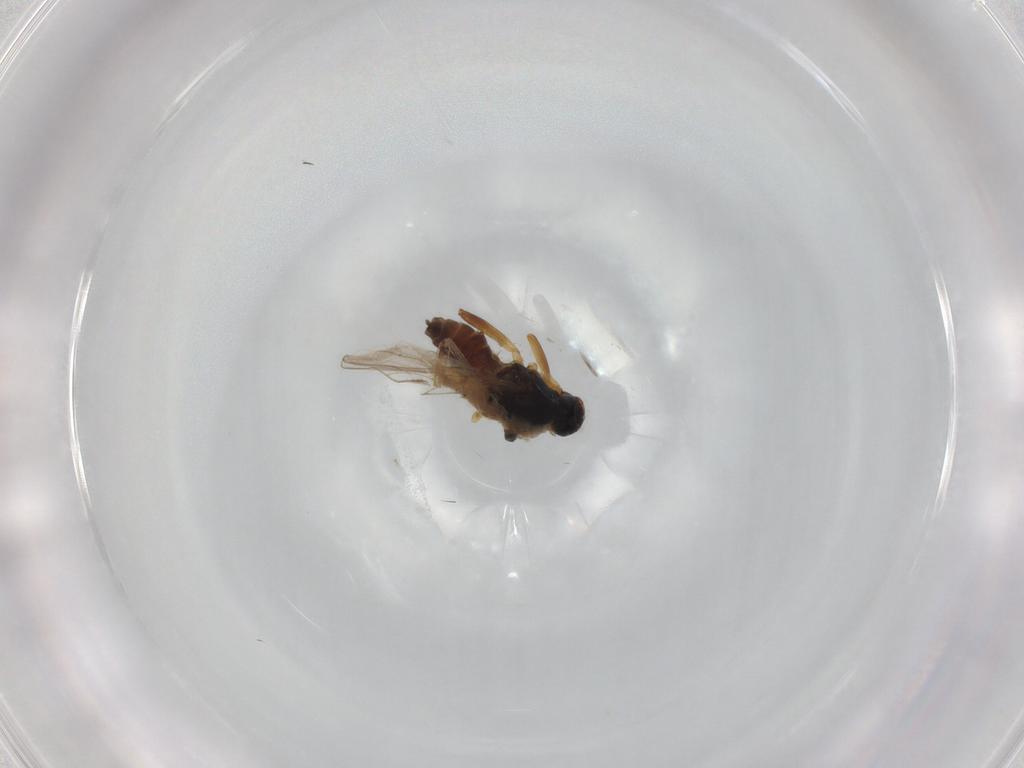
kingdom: Animalia
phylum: Arthropoda
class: Insecta
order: Diptera
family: Hybotidae
